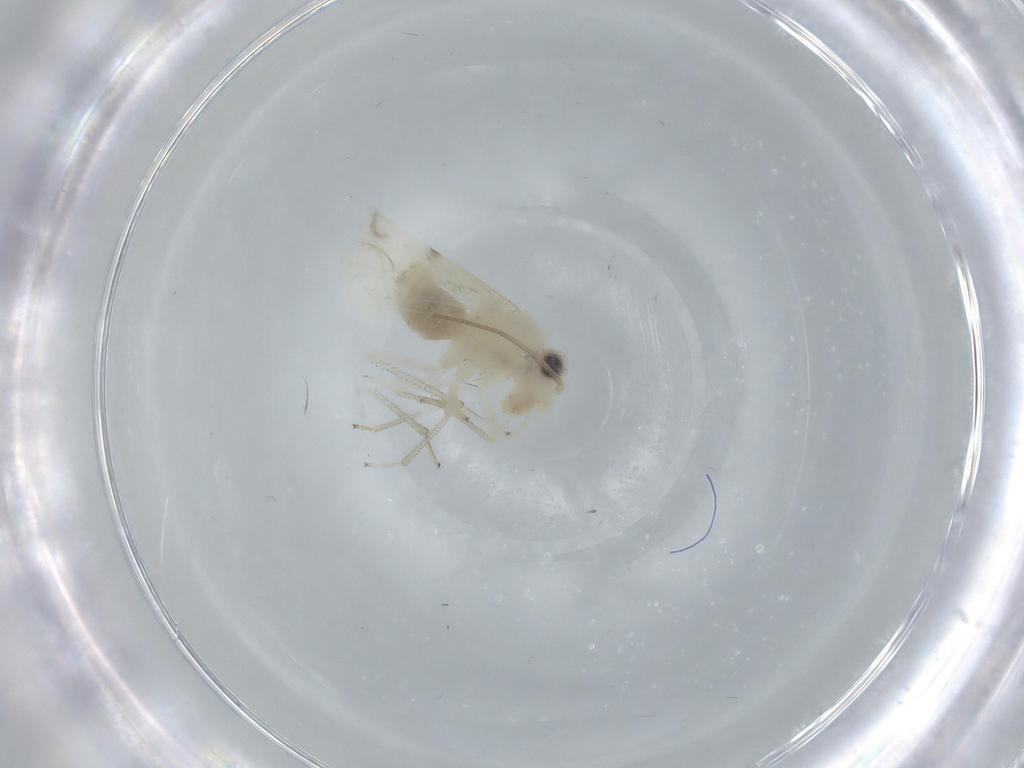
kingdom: Animalia
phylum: Arthropoda
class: Insecta
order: Psocodea
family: Caeciliusidae
